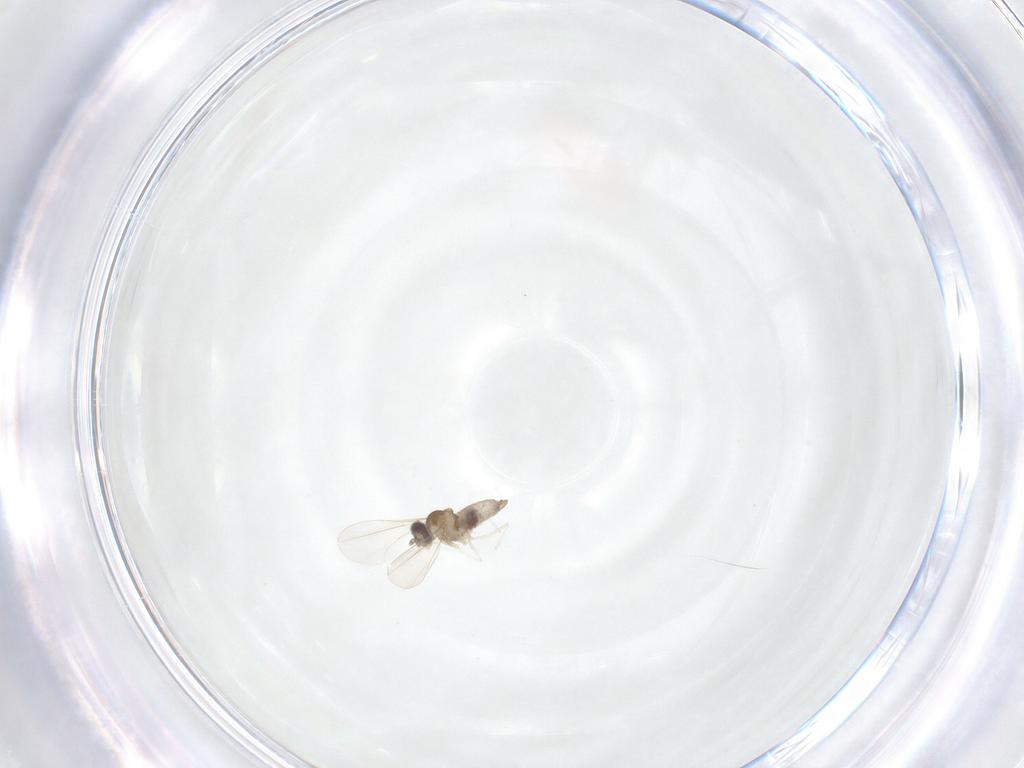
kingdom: Animalia
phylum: Arthropoda
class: Insecta
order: Diptera
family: Cecidomyiidae
